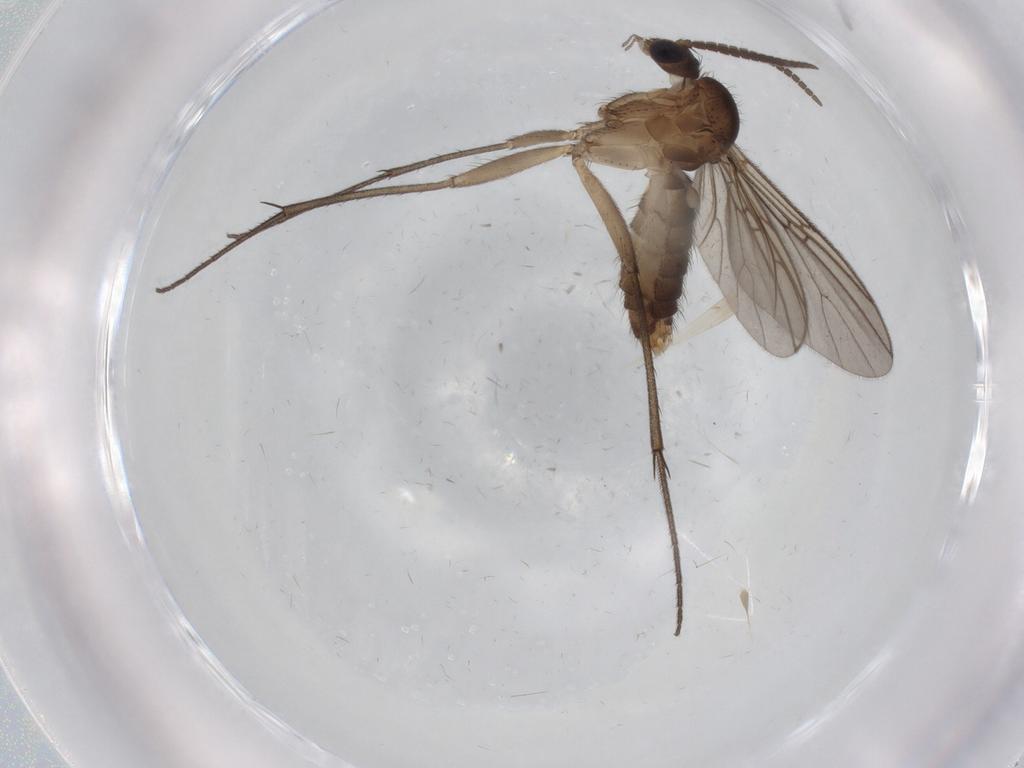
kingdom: Animalia
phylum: Arthropoda
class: Insecta
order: Diptera
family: Chironomidae
